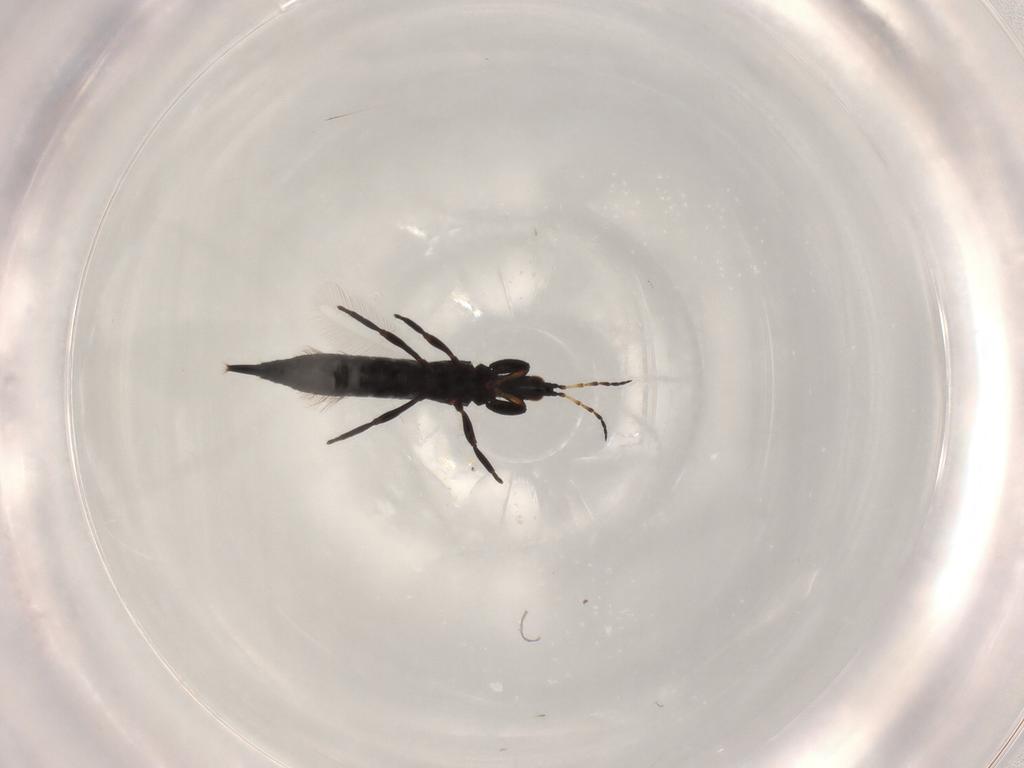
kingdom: Animalia
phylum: Arthropoda
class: Insecta
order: Thysanoptera
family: Phlaeothripidae
